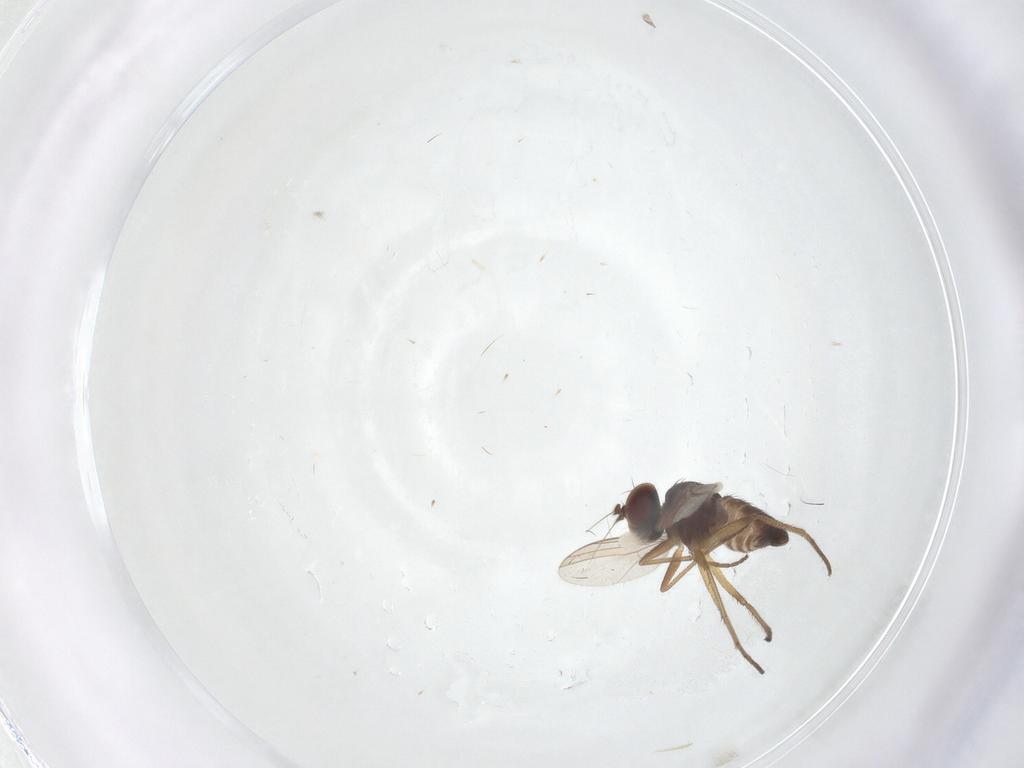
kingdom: Animalia
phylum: Arthropoda
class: Insecta
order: Diptera
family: Dolichopodidae
